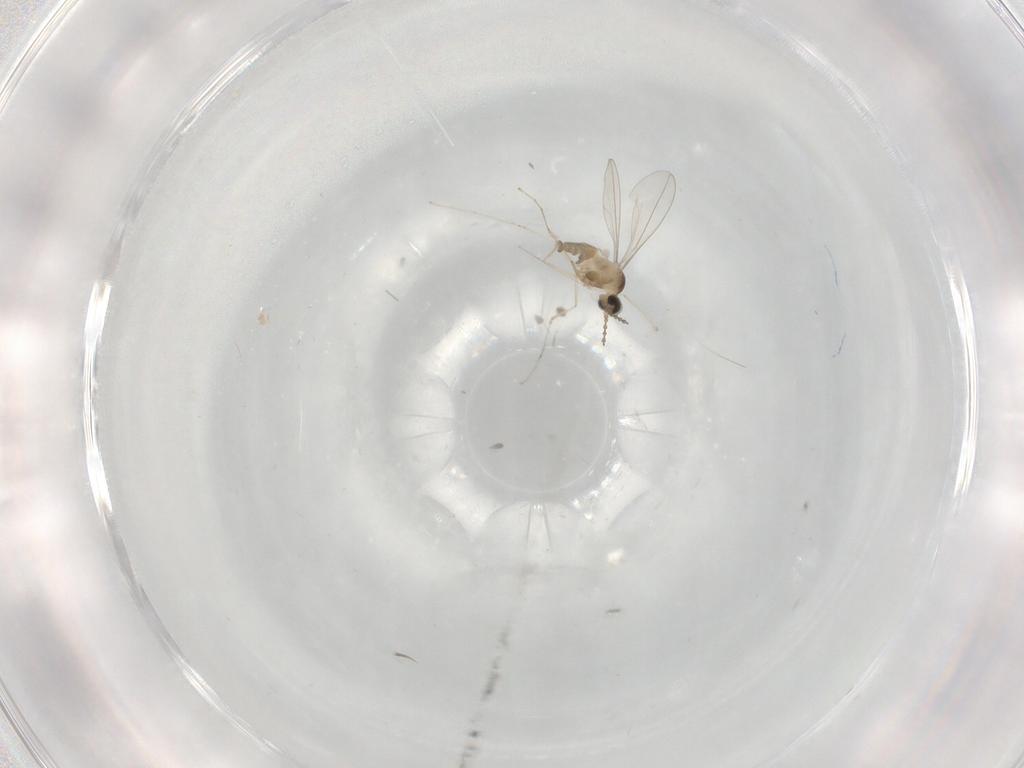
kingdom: Animalia
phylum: Arthropoda
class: Insecta
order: Diptera
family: Cecidomyiidae
